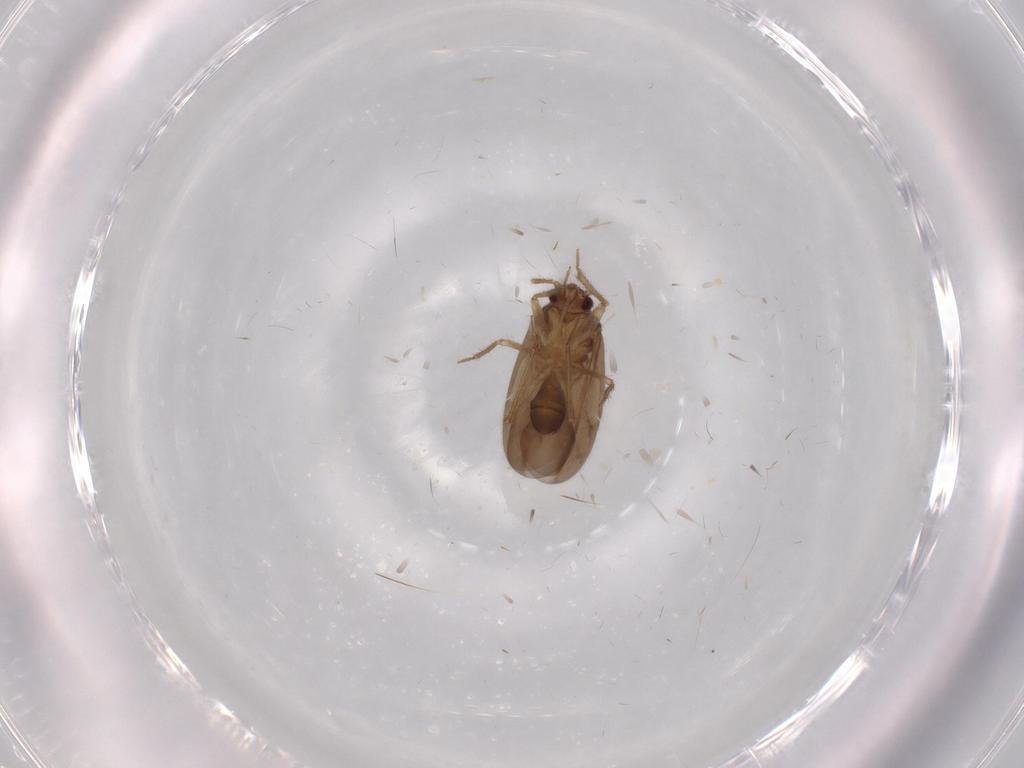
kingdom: Animalia
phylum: Arthropoda
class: Insecta
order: Hemiptera
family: Ceratocombidae
